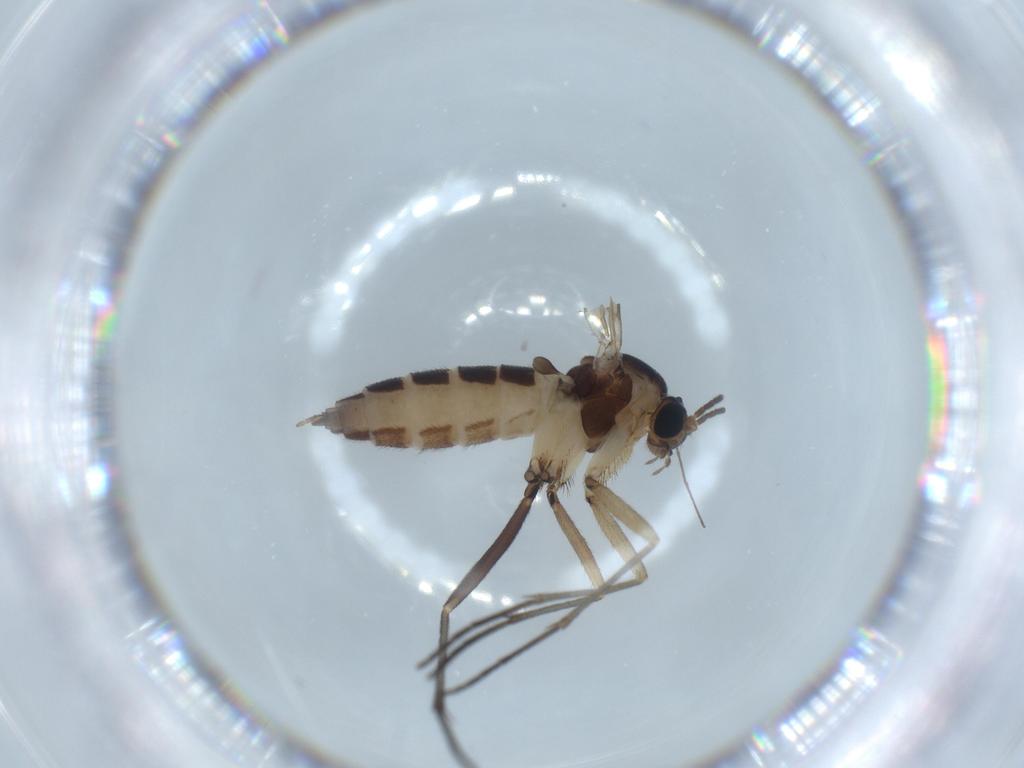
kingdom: Animalia
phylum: Arthropoda
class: Insecta
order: Diptera
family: Sciaridae
